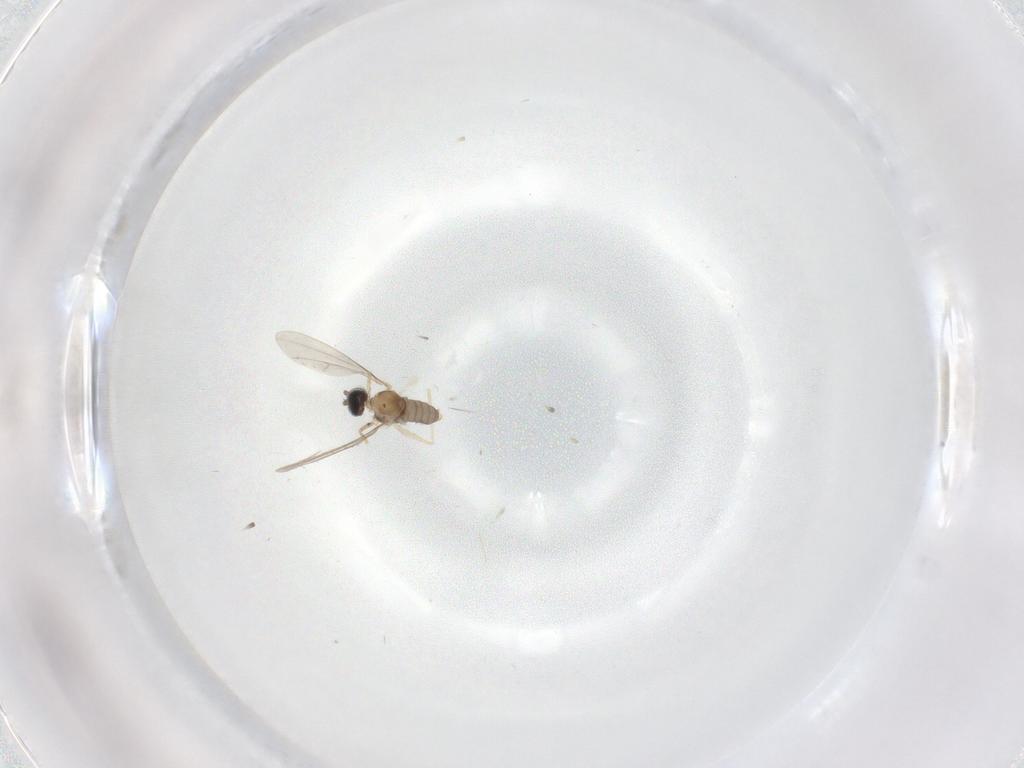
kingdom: Animalia
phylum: Arthropoda
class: Insecta
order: Diptera
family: Cecidomyiidae
